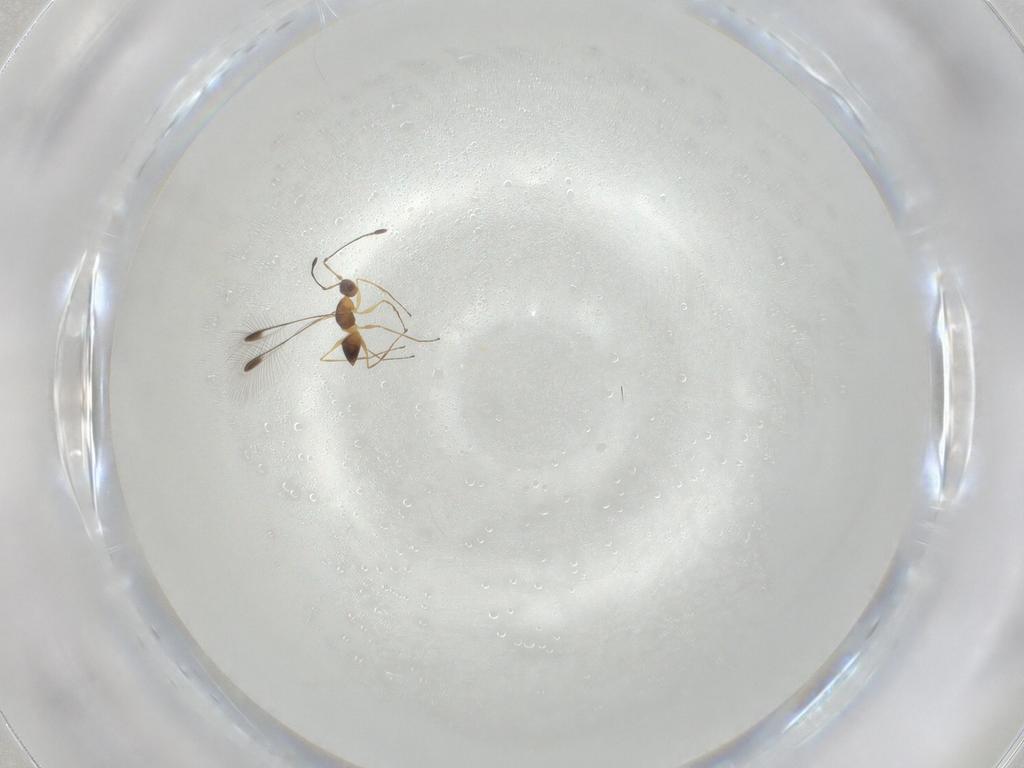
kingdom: Animalia
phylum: Arthropoda
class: Insecta
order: Hymenoptera
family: Mymaridae
